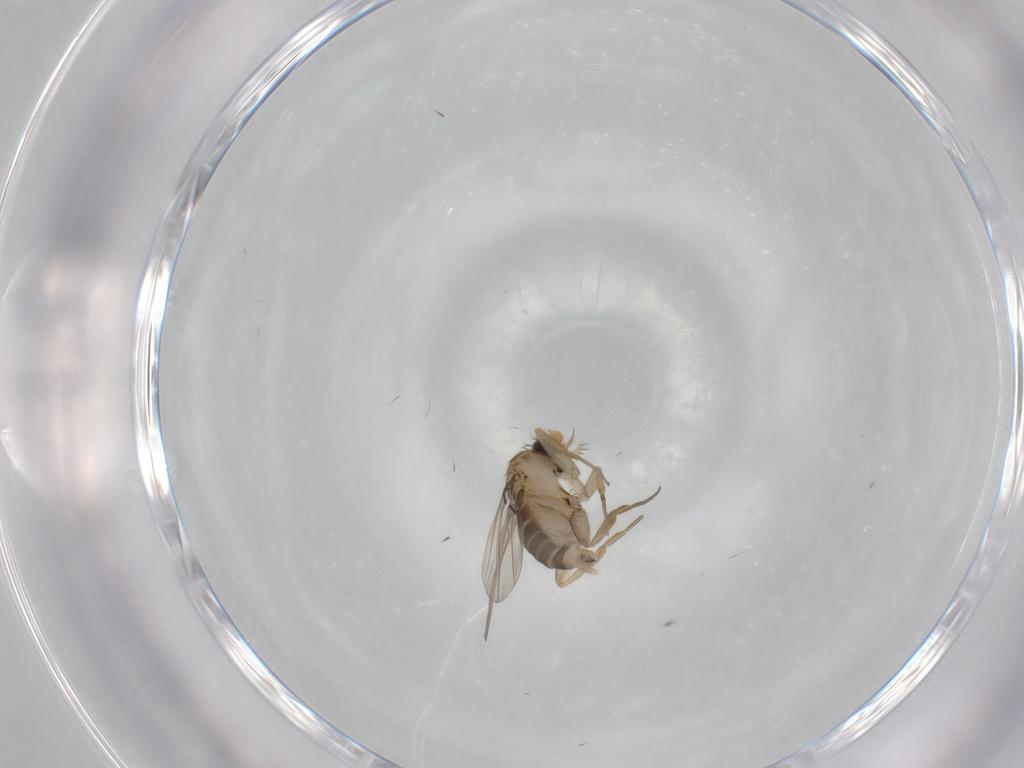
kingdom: Animalia
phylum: Arthropoda
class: Insecta
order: Diptera
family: Phoridae
